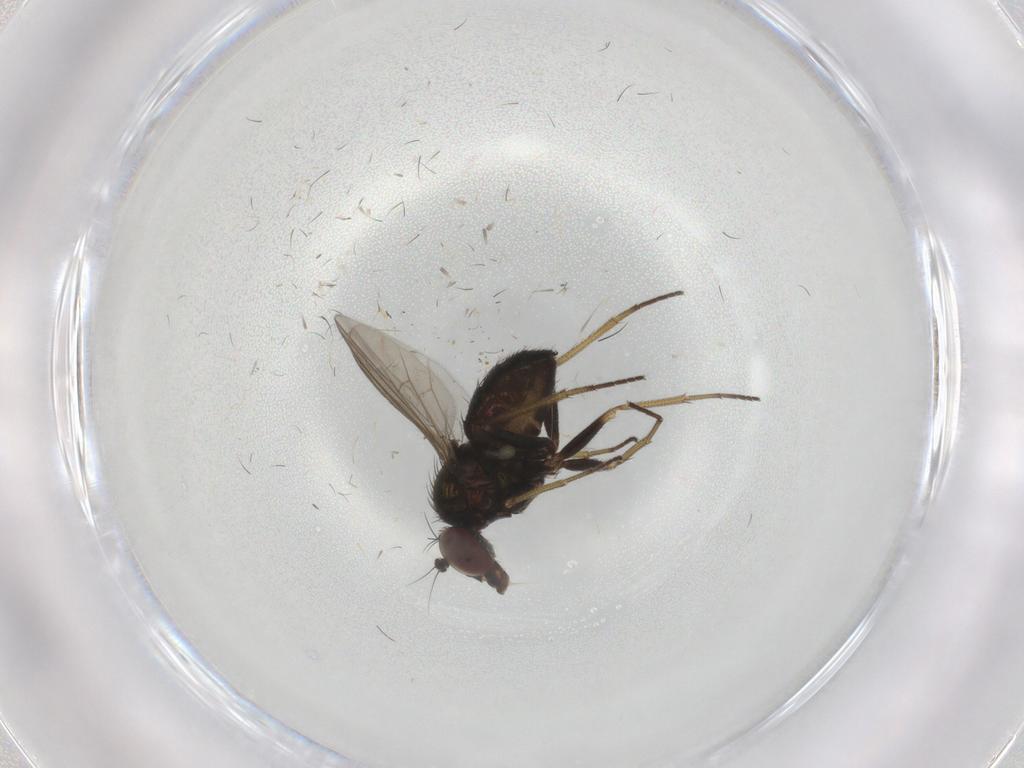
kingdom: Animalia
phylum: Arthropoda
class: Insecta
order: Diptera
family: Dolichopodidae
